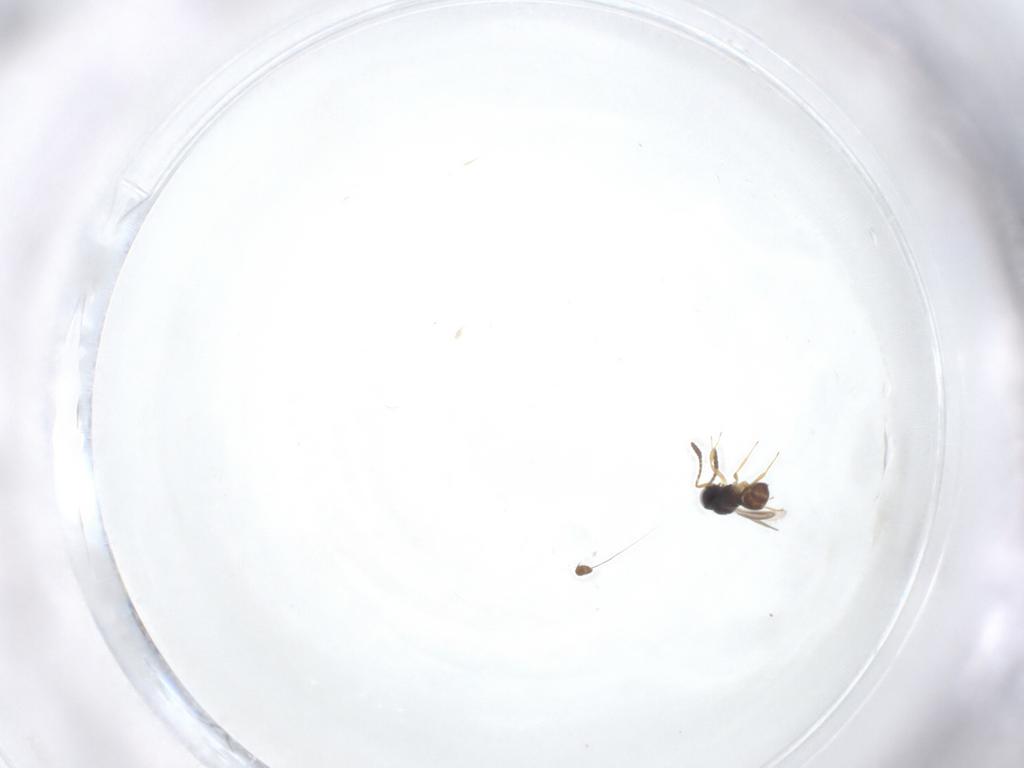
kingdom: Animalia
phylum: Arthropoda
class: Insecta
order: Hymenoptera
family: Scelionidae
